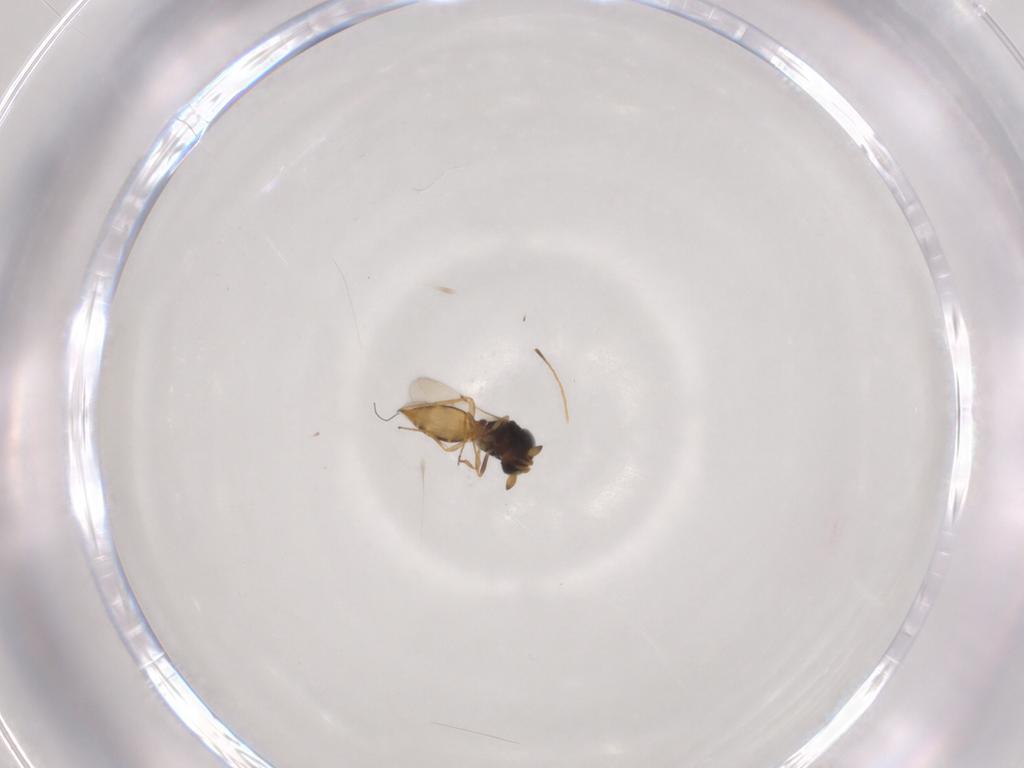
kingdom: Animalia
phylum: Arthropoda
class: Insecta
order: Hymenoptera
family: Scelionidae
